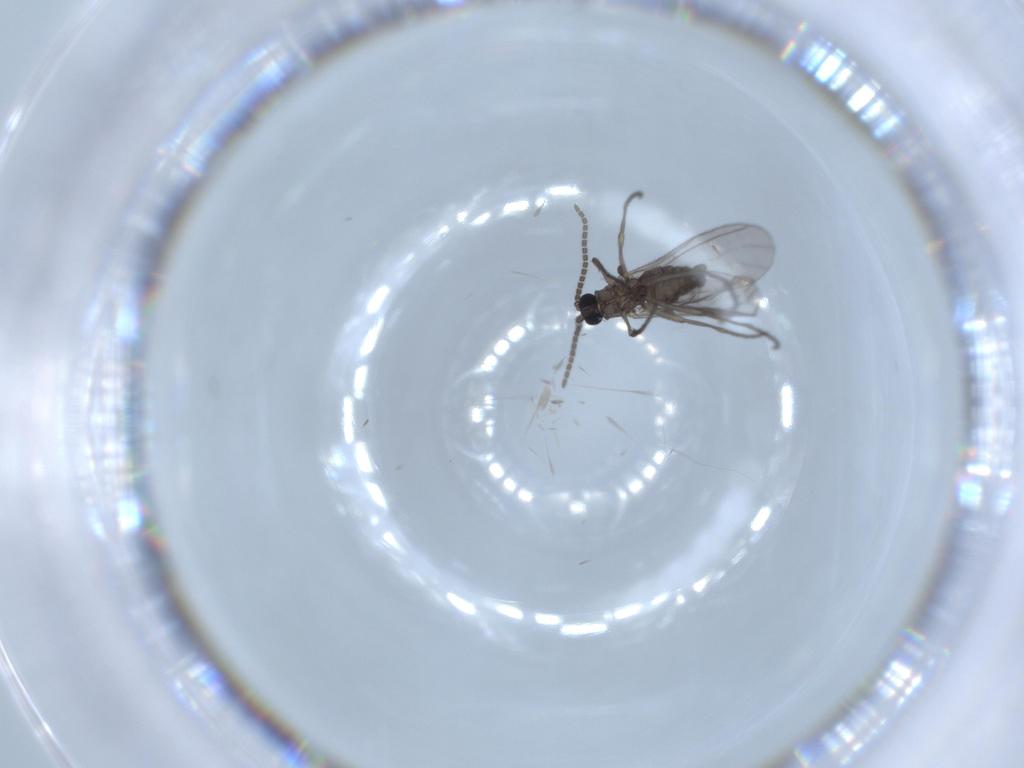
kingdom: Animalia
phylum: Arthropoda
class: Insecta
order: Diptera
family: Sciaridae
